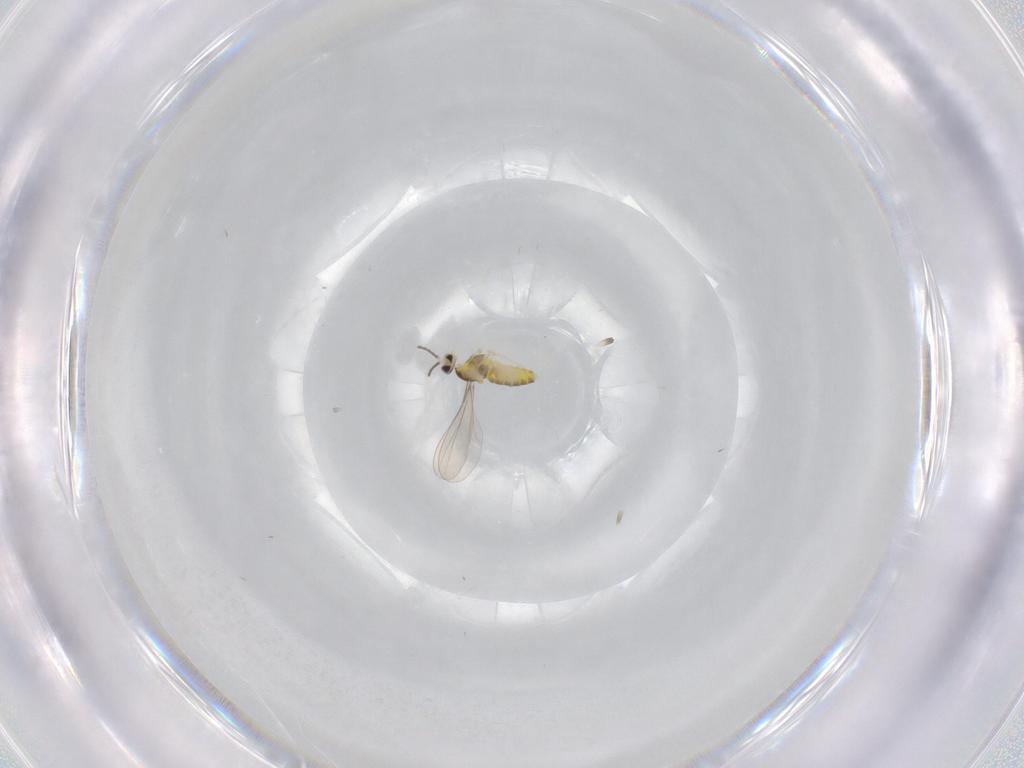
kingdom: Animalia
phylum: Arthropoda
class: Insecta
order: Diptera
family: Cecidomyiidae
